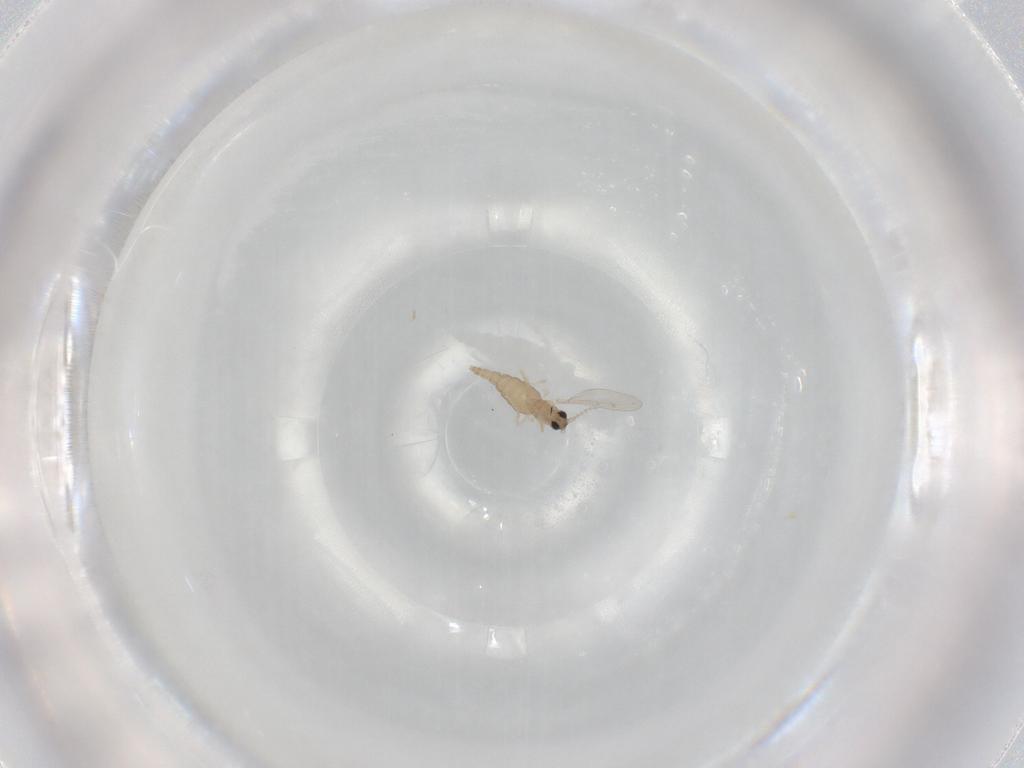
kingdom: Animalia
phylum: Arthropoda
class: Insecta
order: Diptera
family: Cecidomyiidae
